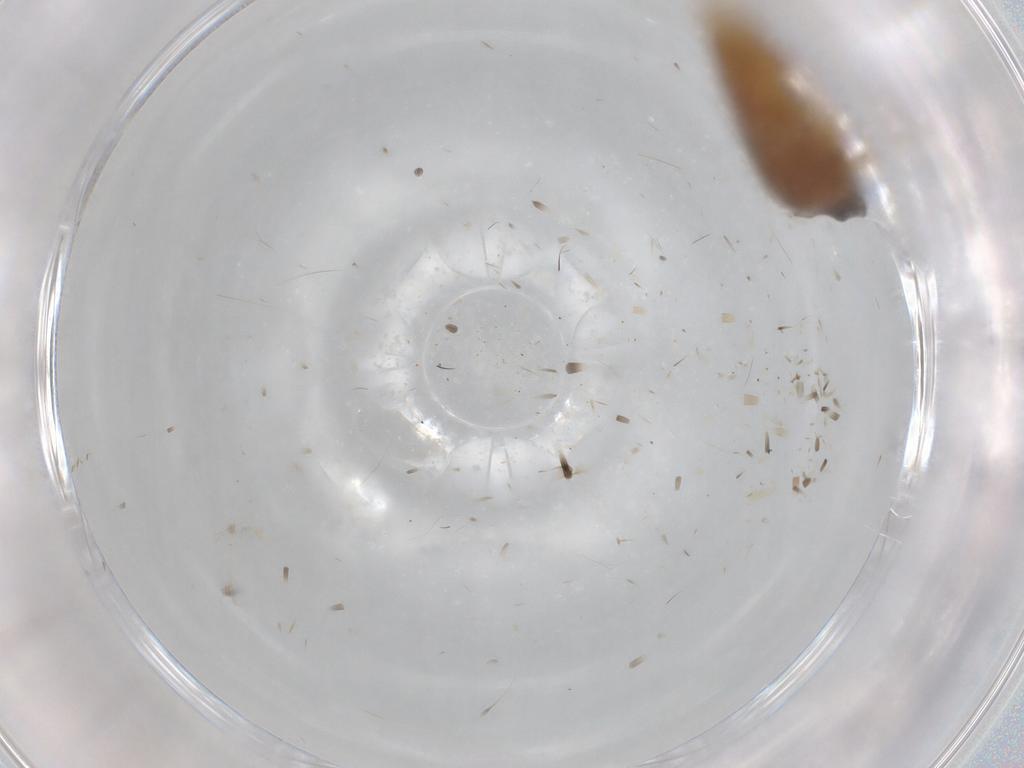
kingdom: Animalia
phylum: Arthropoda
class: Insecta
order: Lepidoptera
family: Gelechiidae
